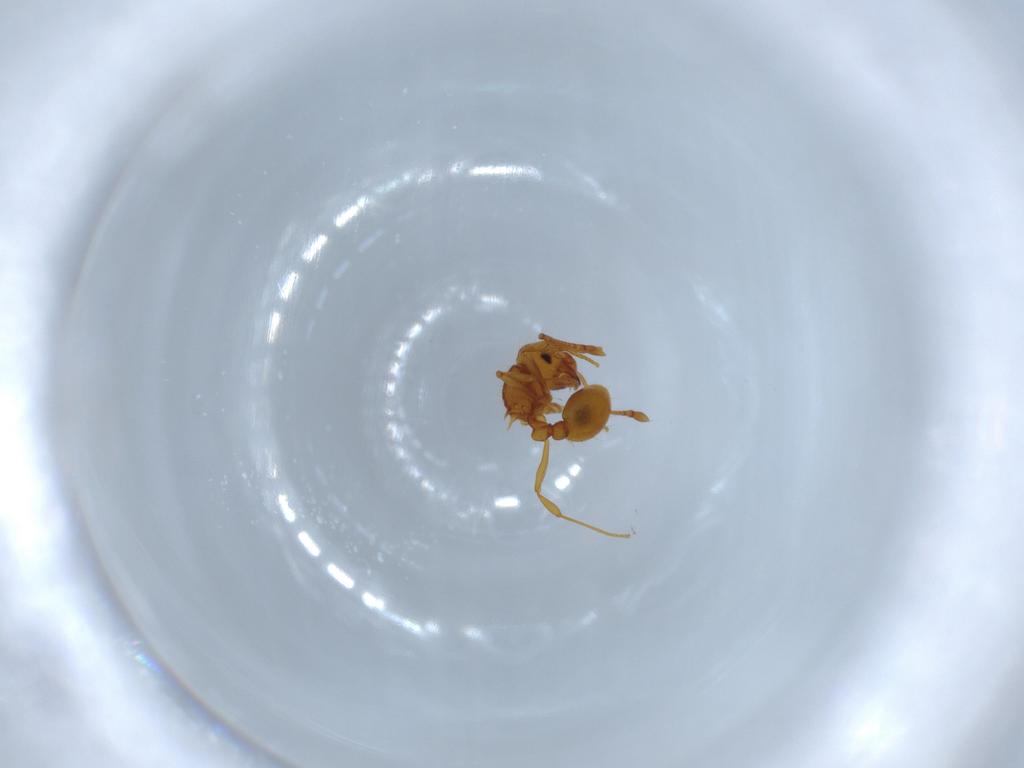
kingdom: Animalia
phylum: Arthropoda
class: Insecta
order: Hymenoptera
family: Formicidae
